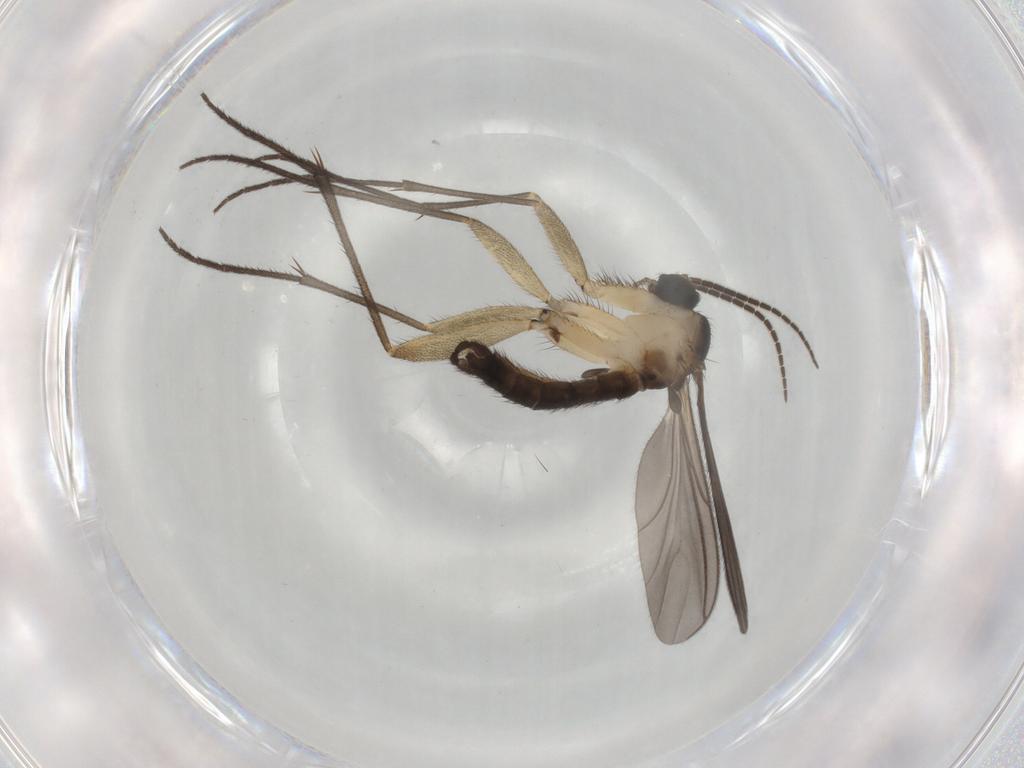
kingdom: Animalia
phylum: Arthropoda
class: Insecta
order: Diptera
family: Sciaridae
